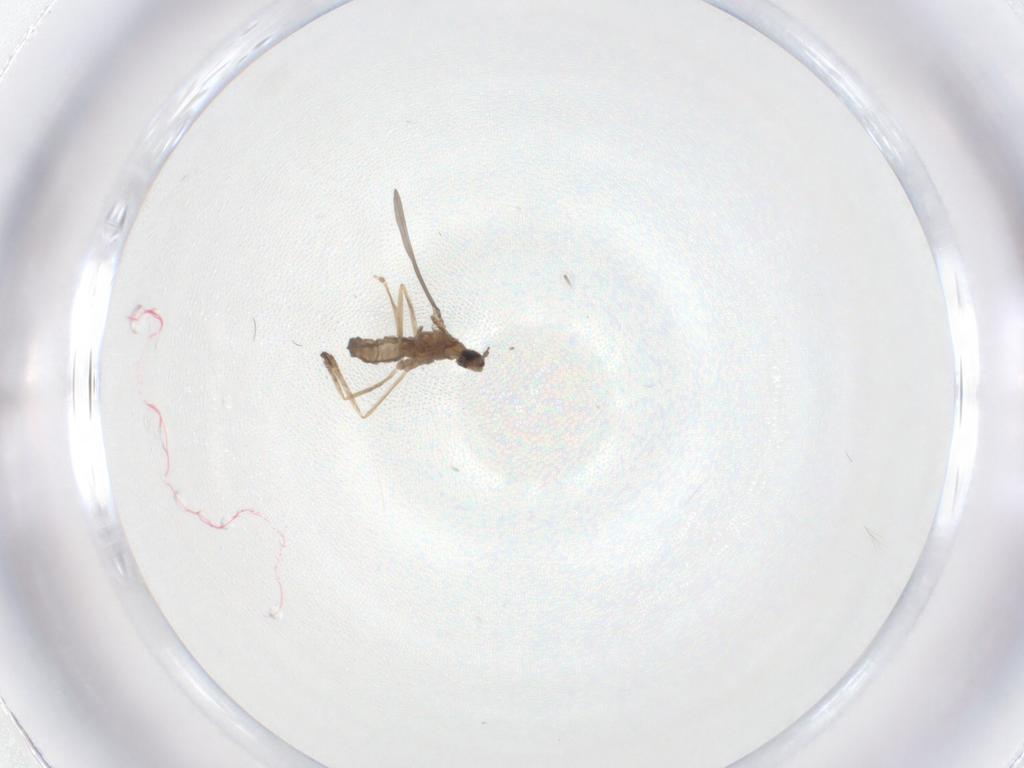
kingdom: Animalia
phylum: Arthropoda
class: Insecta
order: Diptera
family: Cecidomyiidae
